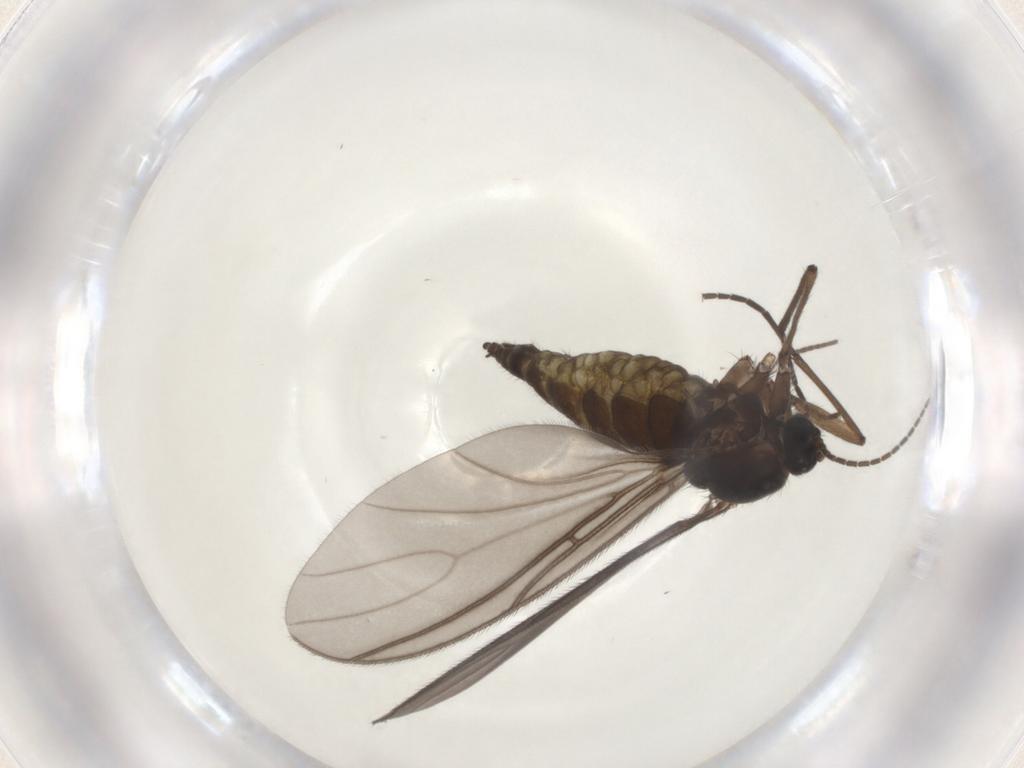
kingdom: Animalia
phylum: Arthropoda
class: Insecta
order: Diptera
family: Sciaridae
